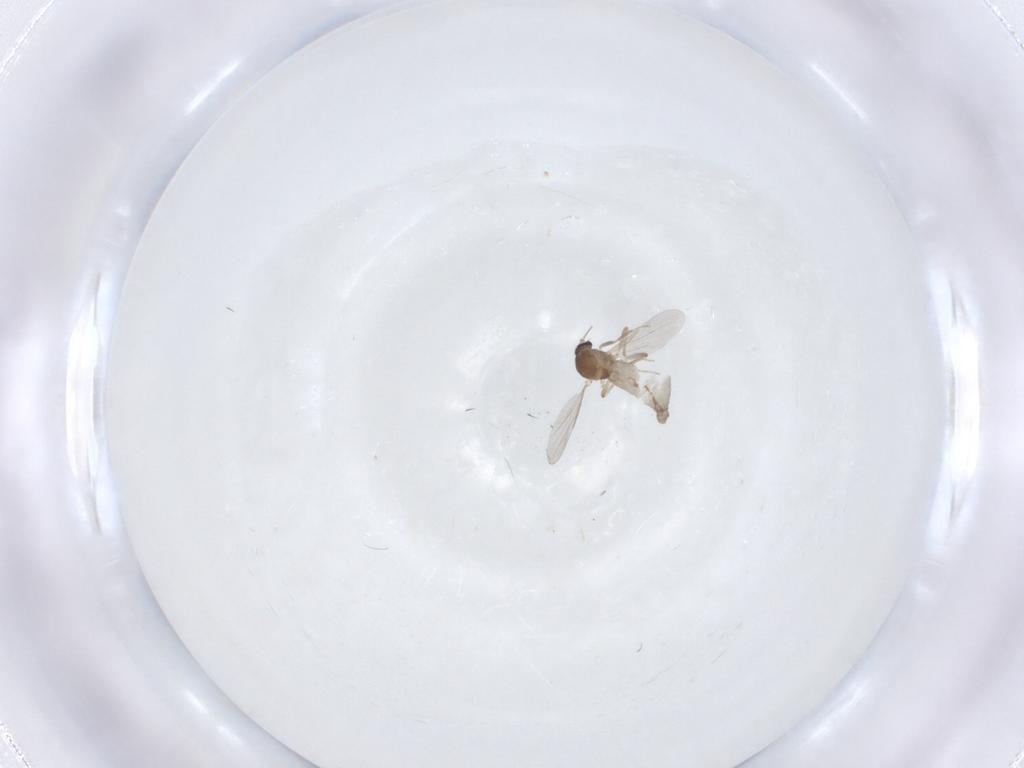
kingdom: Animalia
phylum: Arthropoda
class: Insecta
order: Diptera
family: Ceratopogonidae
